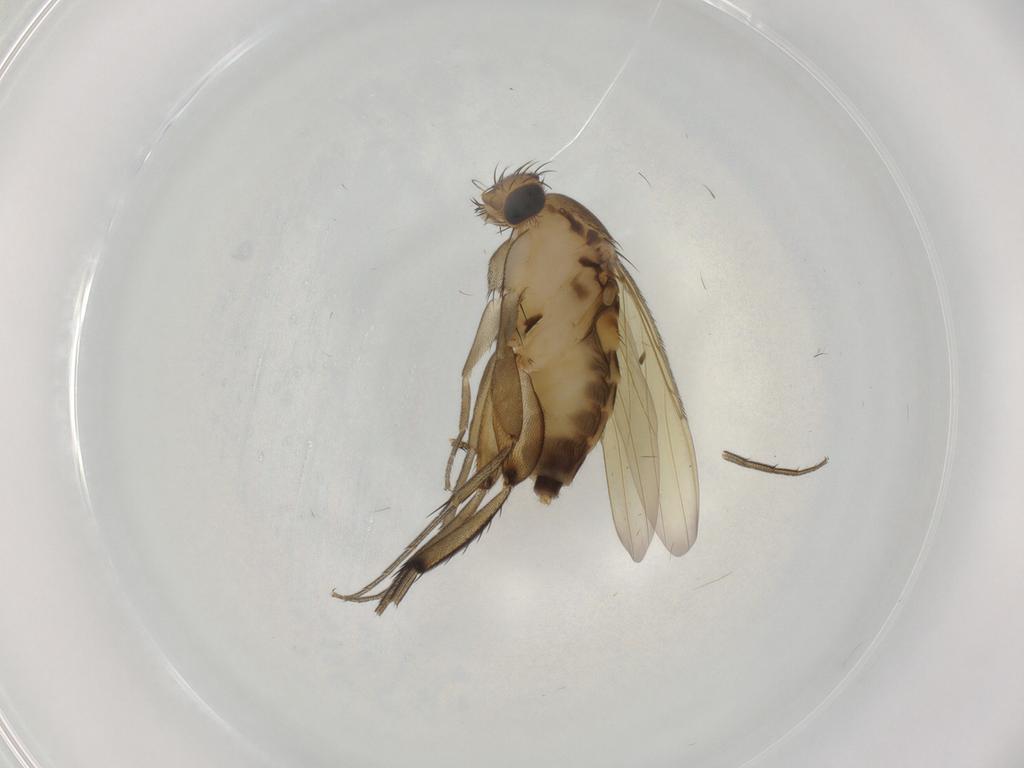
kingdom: Animalia
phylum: Arthropoda
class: Insecta
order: Diptera
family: Phoridae
